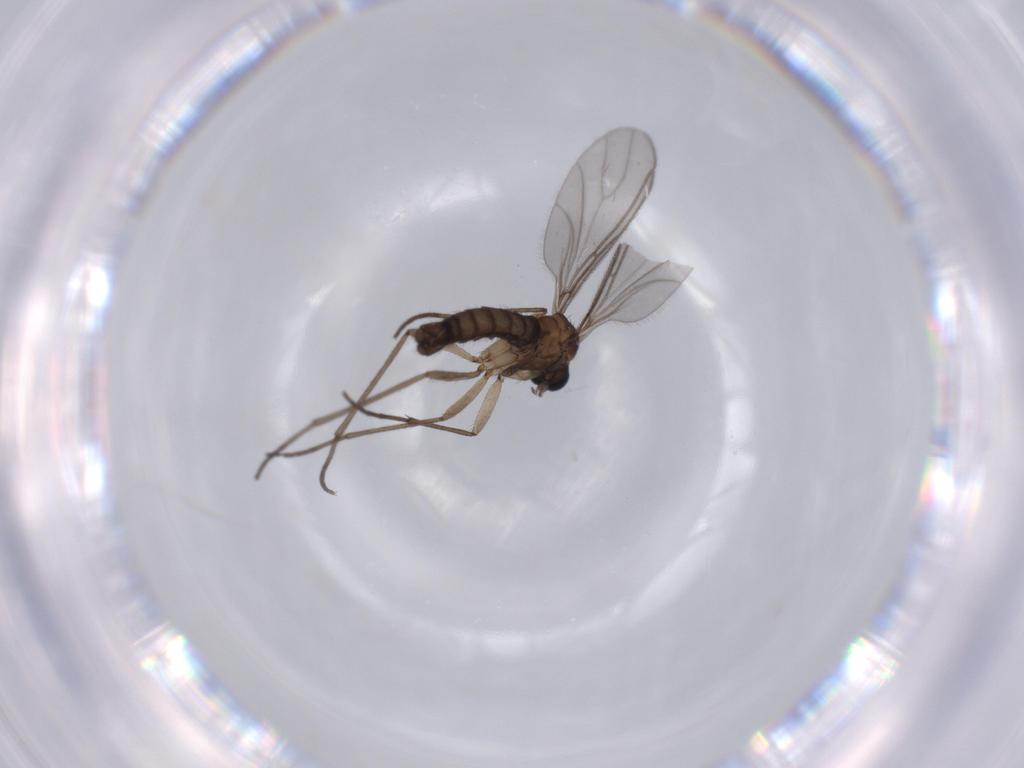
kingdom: Animalia
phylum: Arthropoda
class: Insecta
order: Diptera
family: Sciaridae
